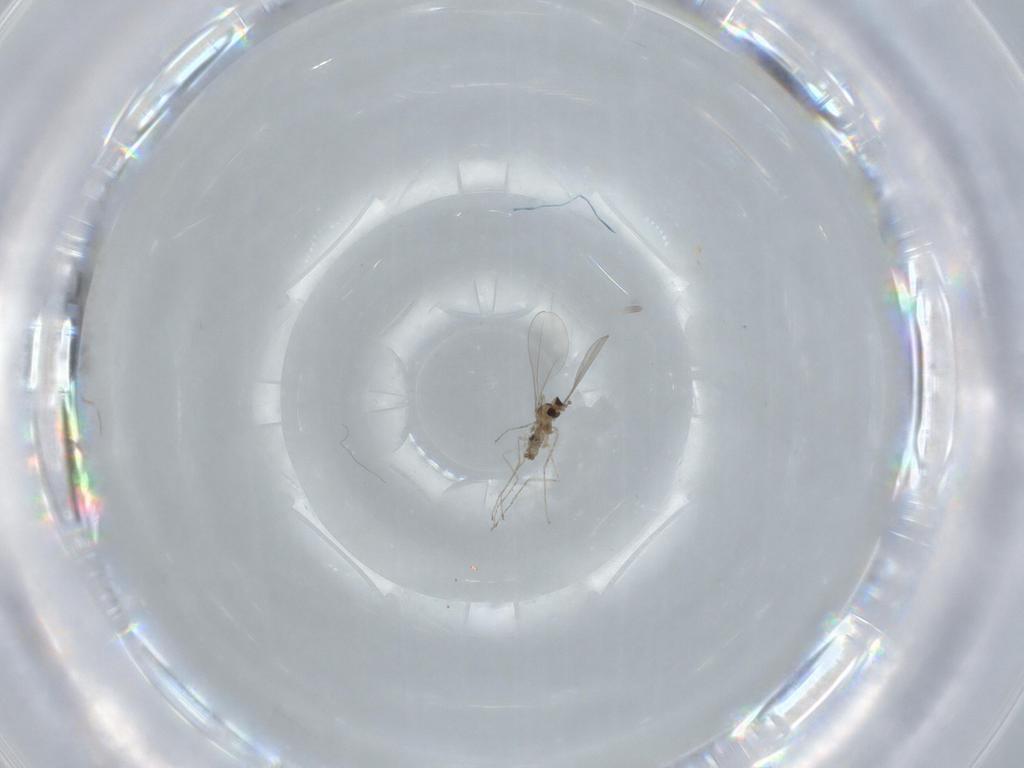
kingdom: Animalia
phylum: Arthropoda
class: Insecta
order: Diptera
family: Cecidomyiidae
